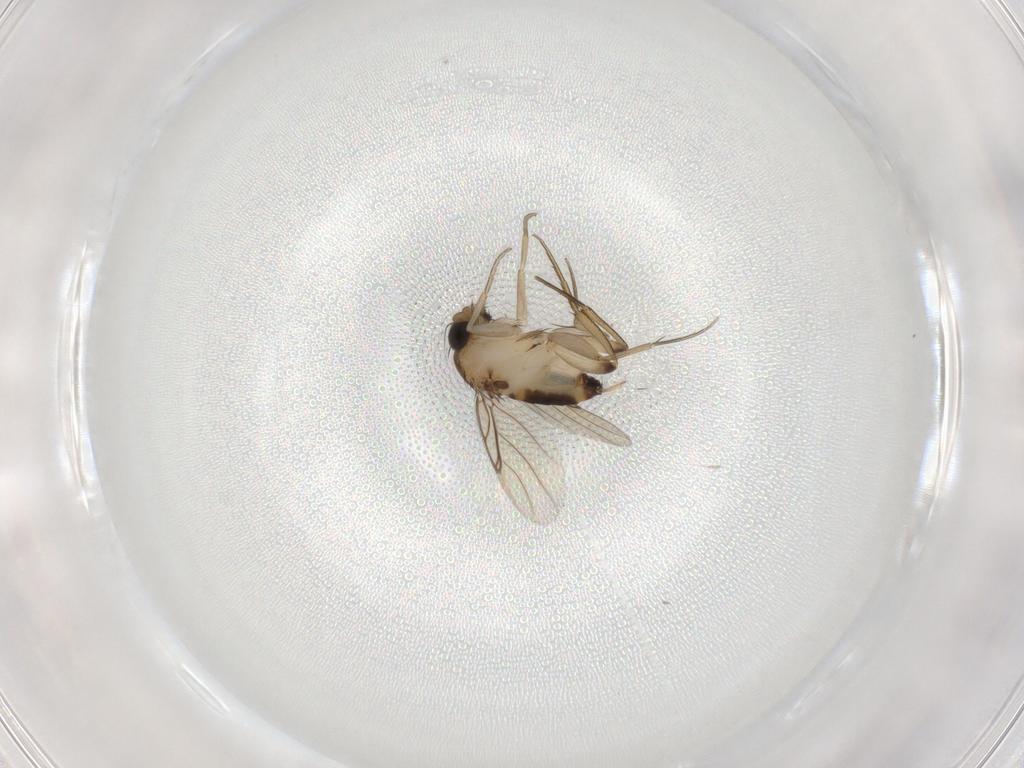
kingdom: Animalia
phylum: Arthropoda
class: Insecta
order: Diptera
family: Phoridae
